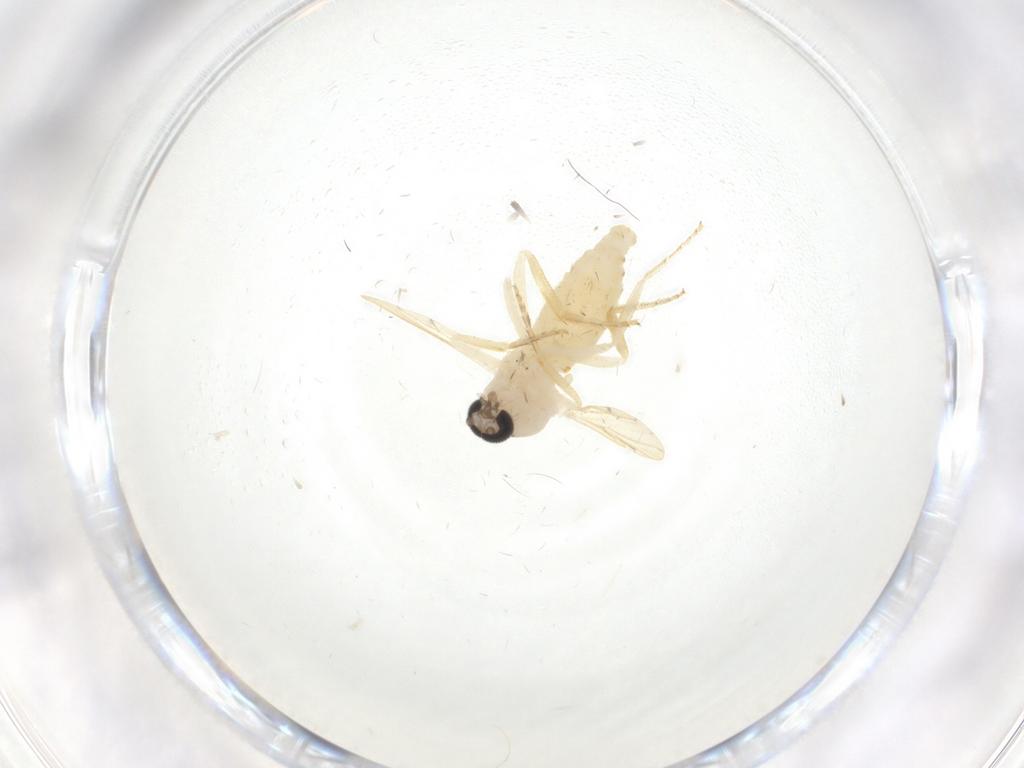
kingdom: Animalia
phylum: Arthropoda
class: Insecta
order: Diptera
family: Ceratopogonidae
